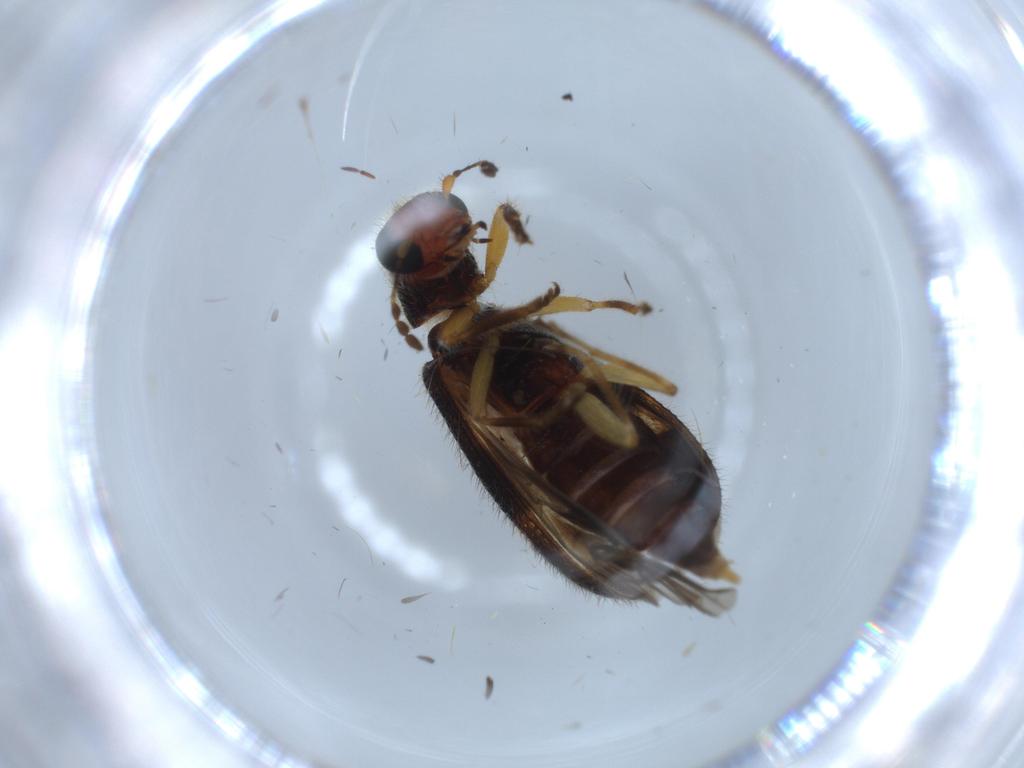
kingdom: Animalia
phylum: Arthropoda
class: Insecta
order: Coleoptera
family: Cleridae
